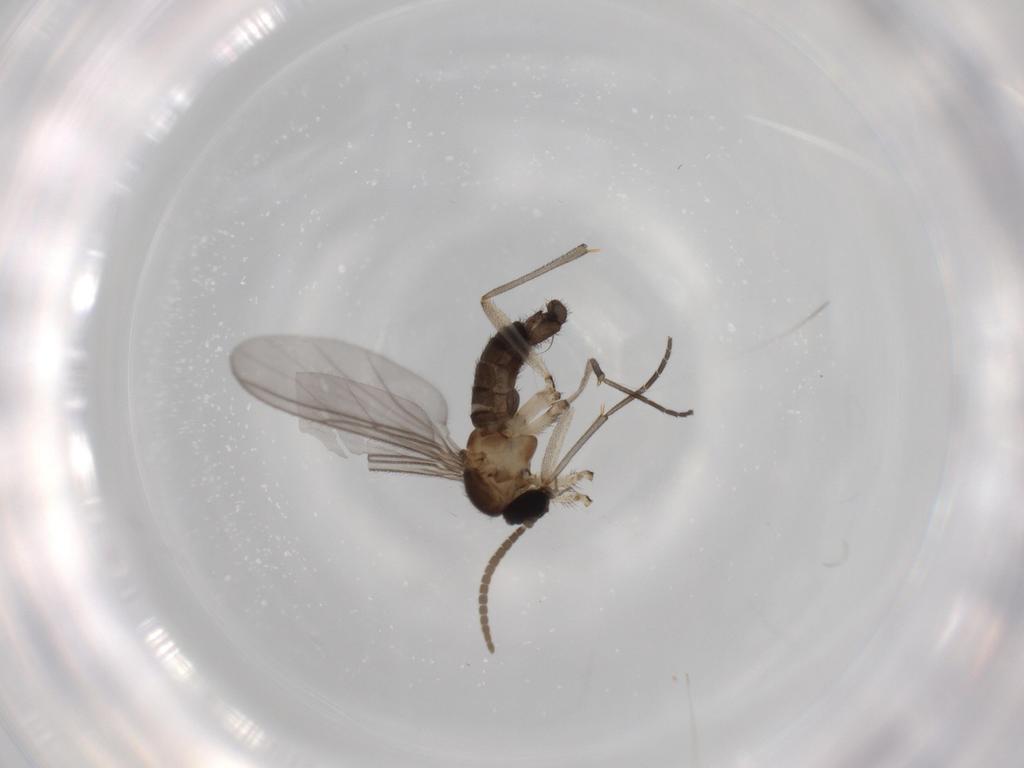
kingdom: Animalia
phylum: Arthropoda
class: Insecta
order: Diptera
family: Sciaridae
